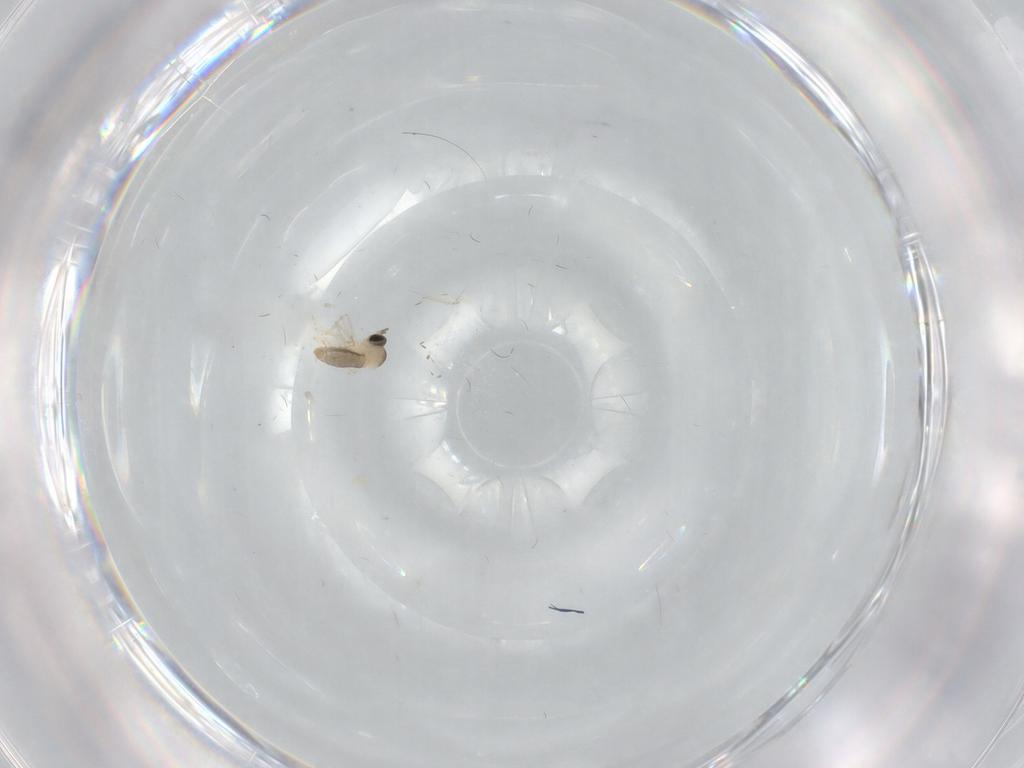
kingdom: Animalia
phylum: Arthropoda
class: Insecta
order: Diptera
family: Cecidomyiidae
